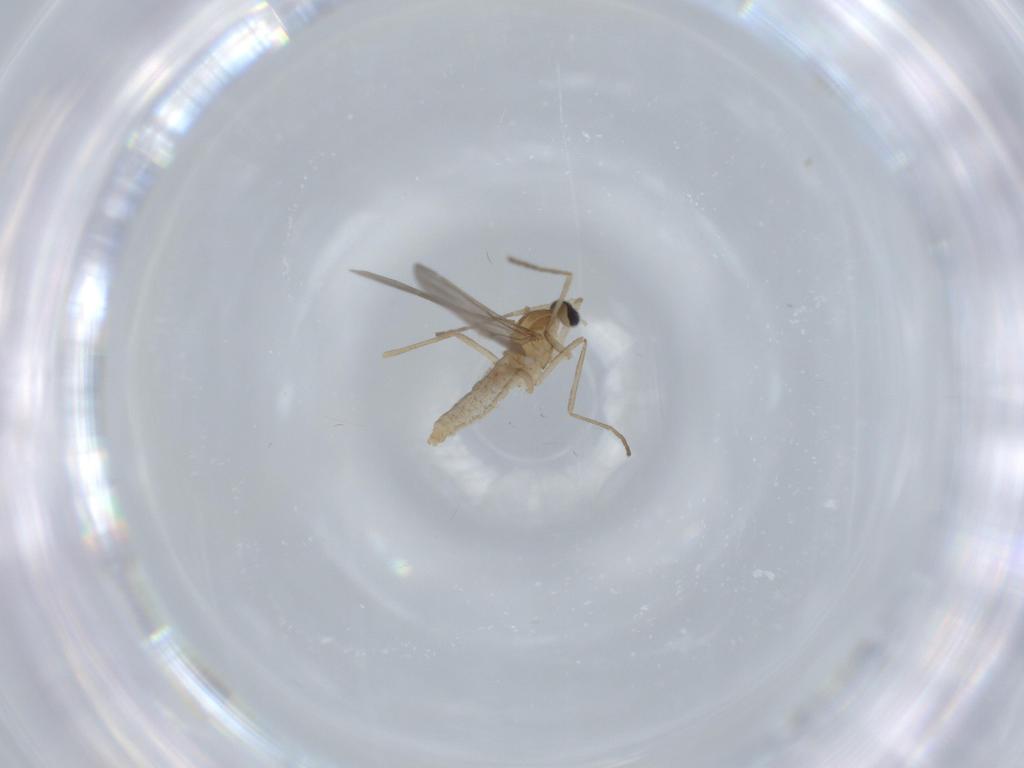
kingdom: Animalia
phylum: Arthropoda
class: Insecta
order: Diptera
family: Cecidomyiidae
